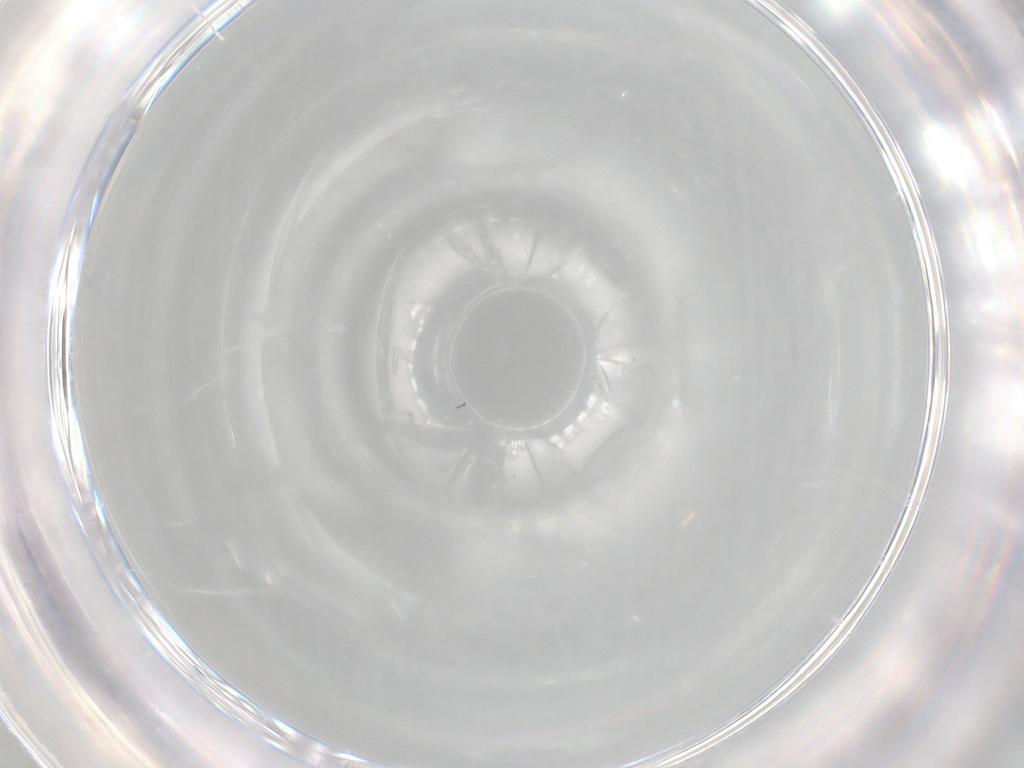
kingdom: Animalia
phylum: Arthropoda
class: Arachnida
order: Trombidiformes
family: Erythraeidae
